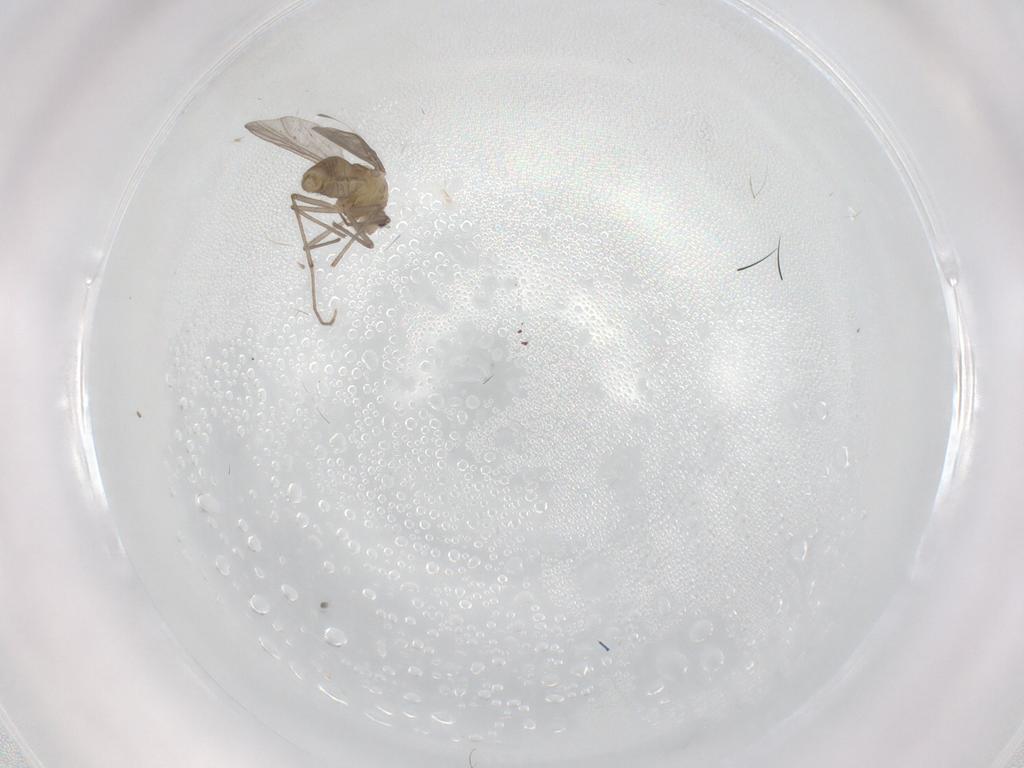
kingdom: Animalia
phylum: Arthropoda
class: Insecta
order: Diptera
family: Chironomidae
